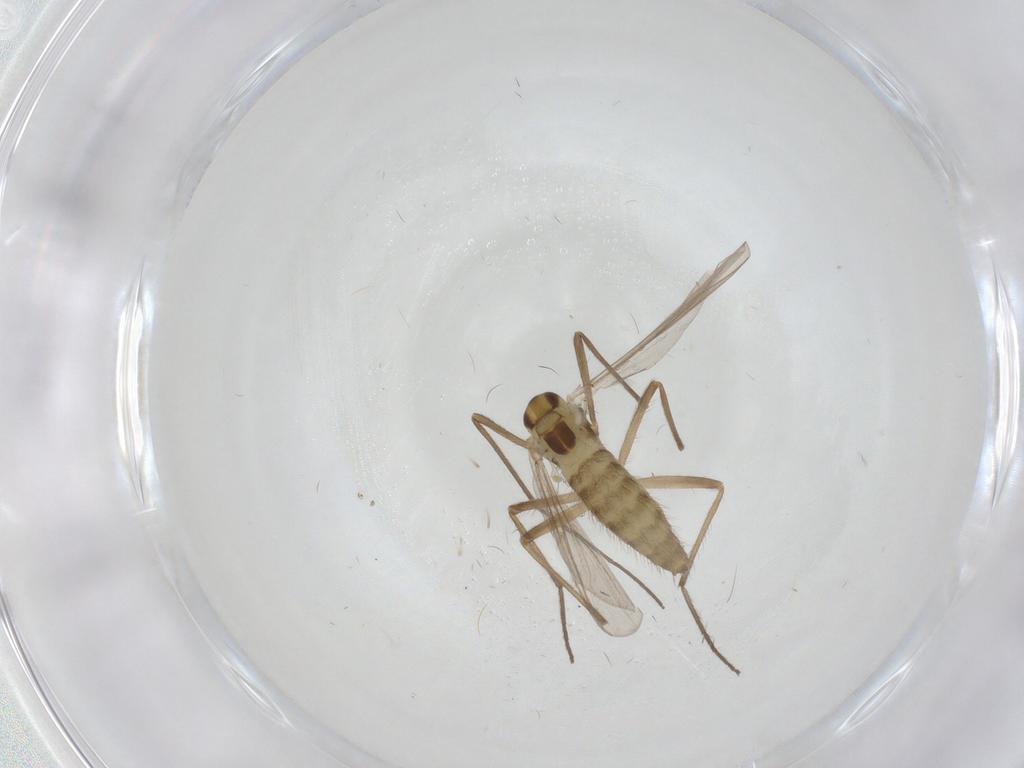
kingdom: Animalia
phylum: Arthropoda
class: Insecta
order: Diptera
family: Chironomidae
